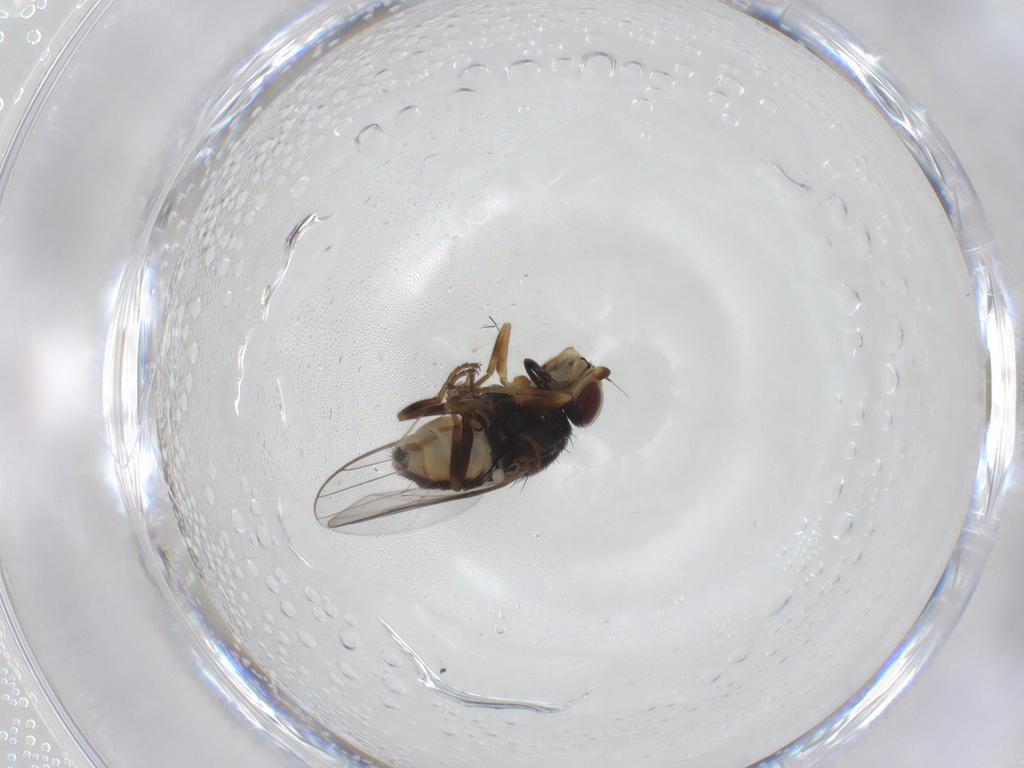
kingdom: Animalia
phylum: Arthropoda
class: Insecta
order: Diptera
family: Chloropidae
